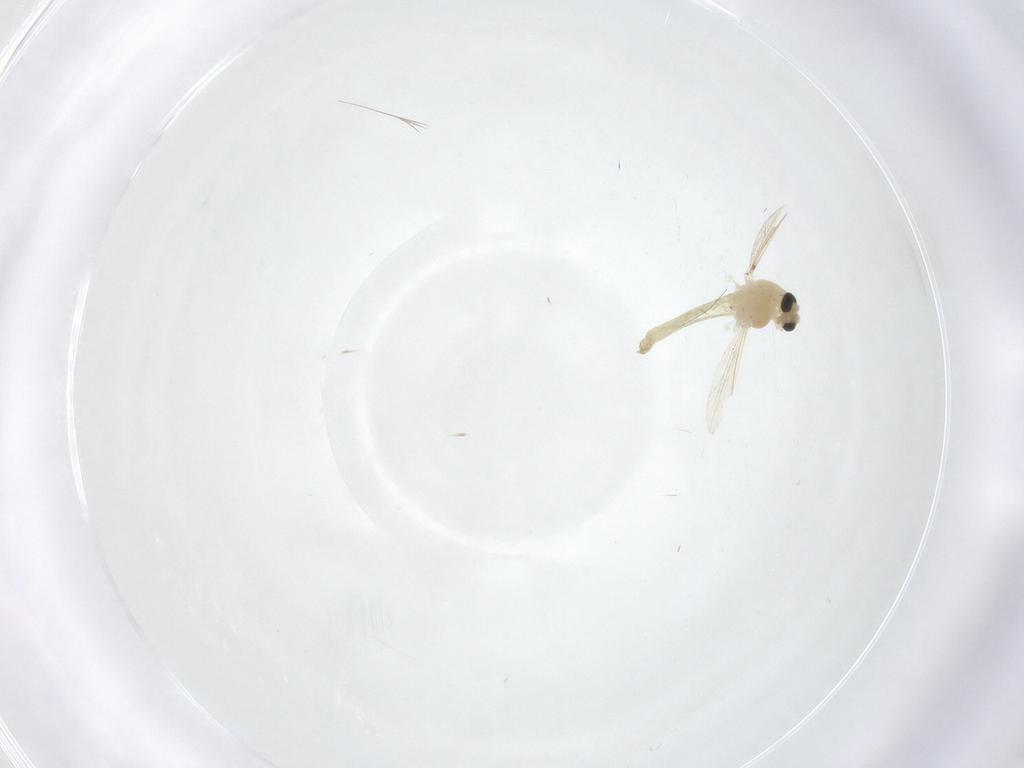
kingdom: Animalia
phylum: Arthropoda
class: Insecta
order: Diptera
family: Chironomidae
